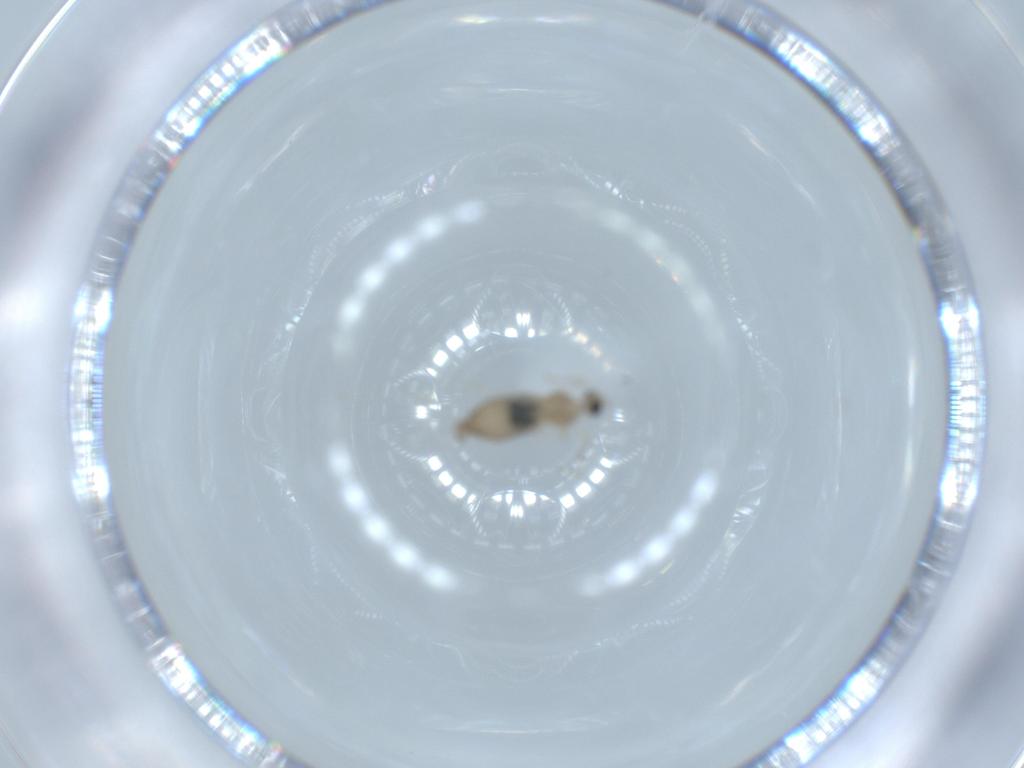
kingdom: Animalia
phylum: Arthropoda
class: Insecta
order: Diptera
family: Cecidomyiidae
